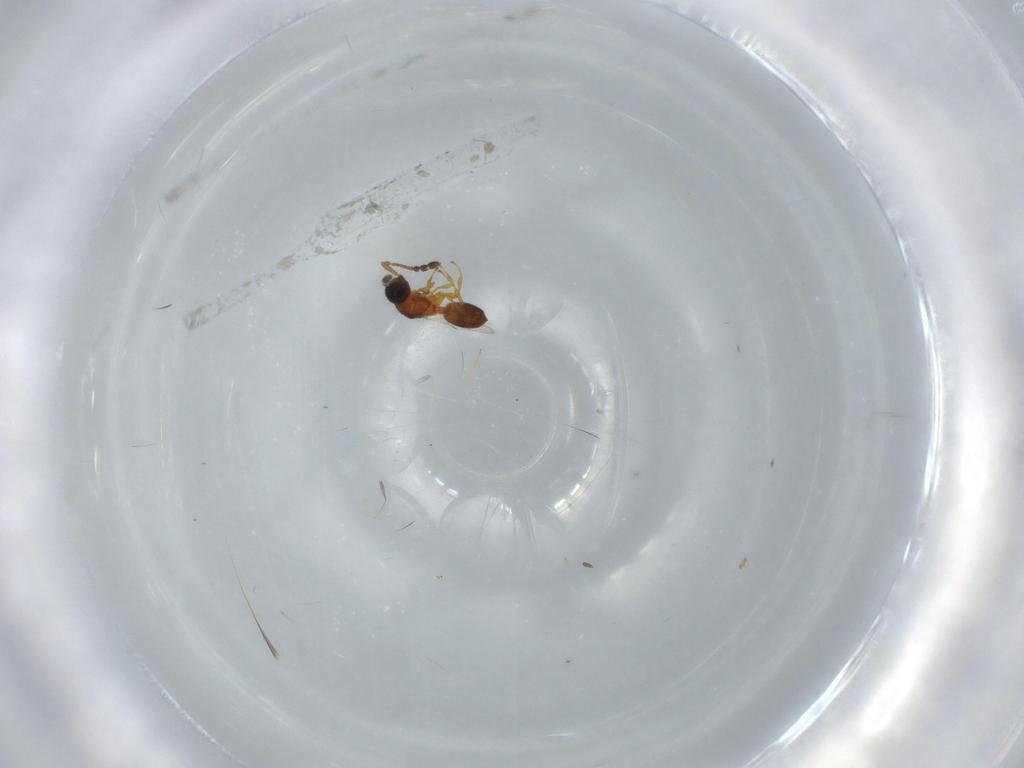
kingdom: Animalia
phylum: Arthropoda
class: Insecta
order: Hymenoptera
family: Diapriidae
